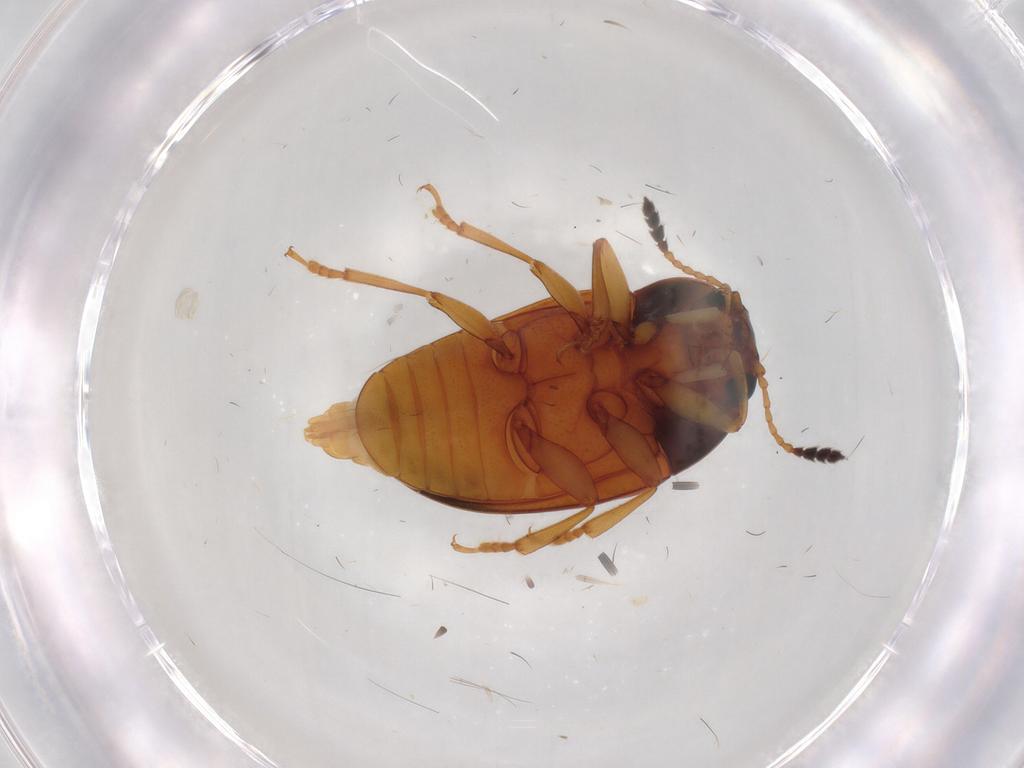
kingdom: Animalia
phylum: Arthropoda
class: Insecta
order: Coleoptera
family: Erotylidae
